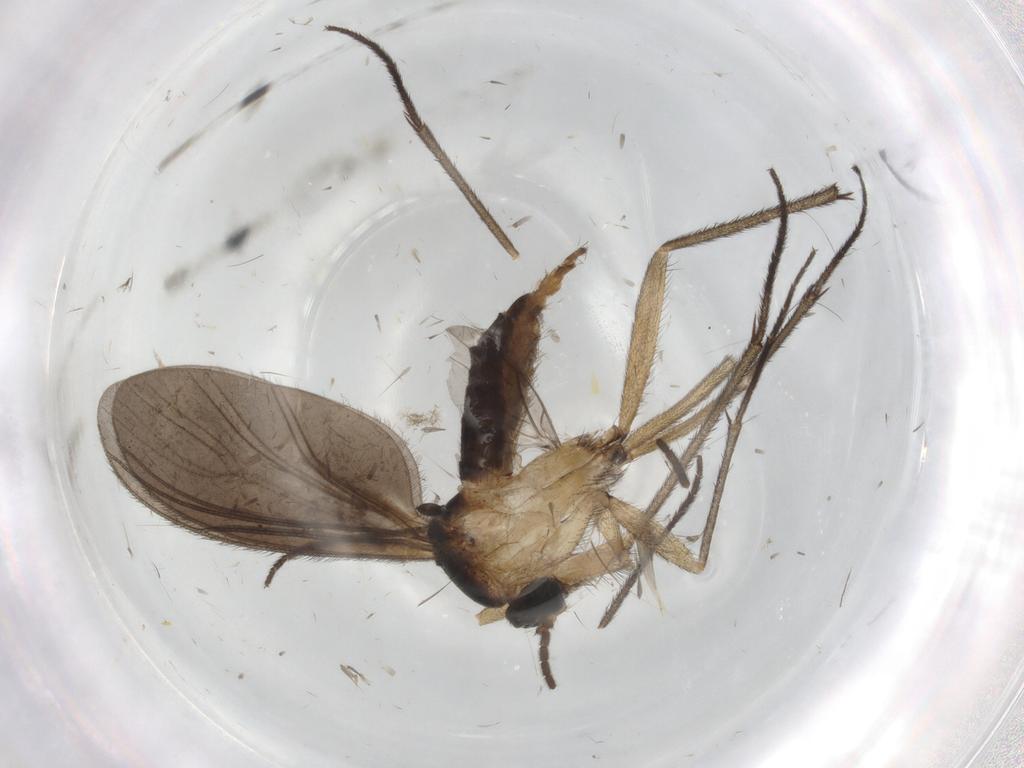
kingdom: Animalia
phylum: Arthropoda
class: Insecta
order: Diptera
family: Sciaridae
